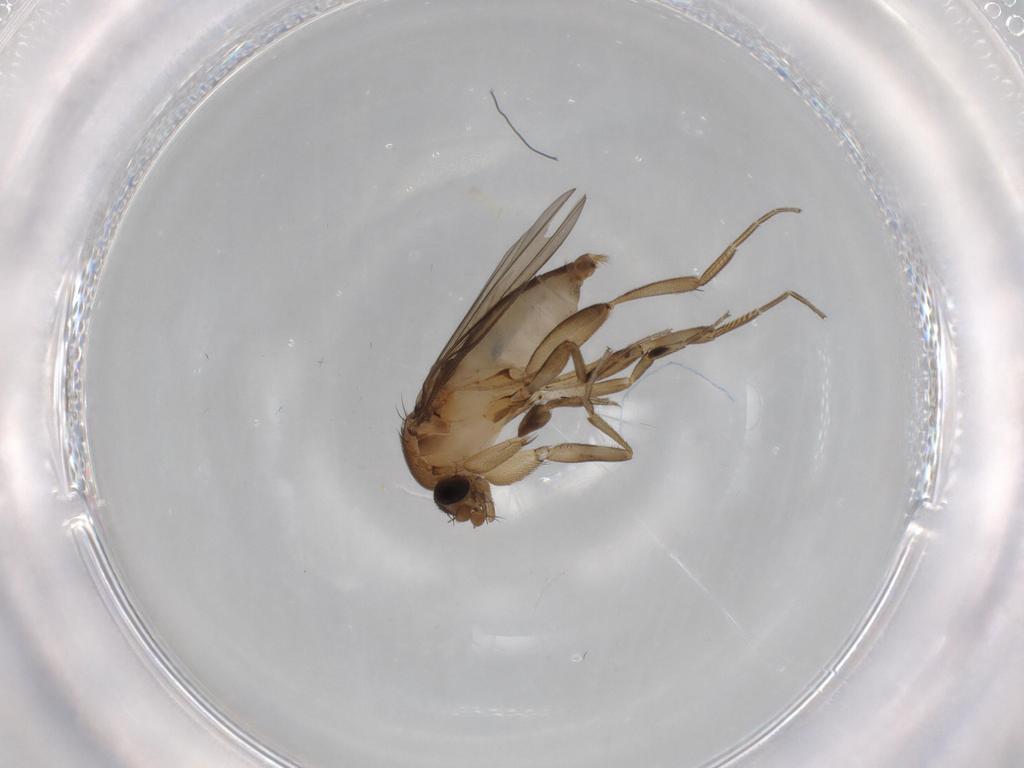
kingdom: Animalia
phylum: Arthropoda
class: Insecta
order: Diptera
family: Phoridae
